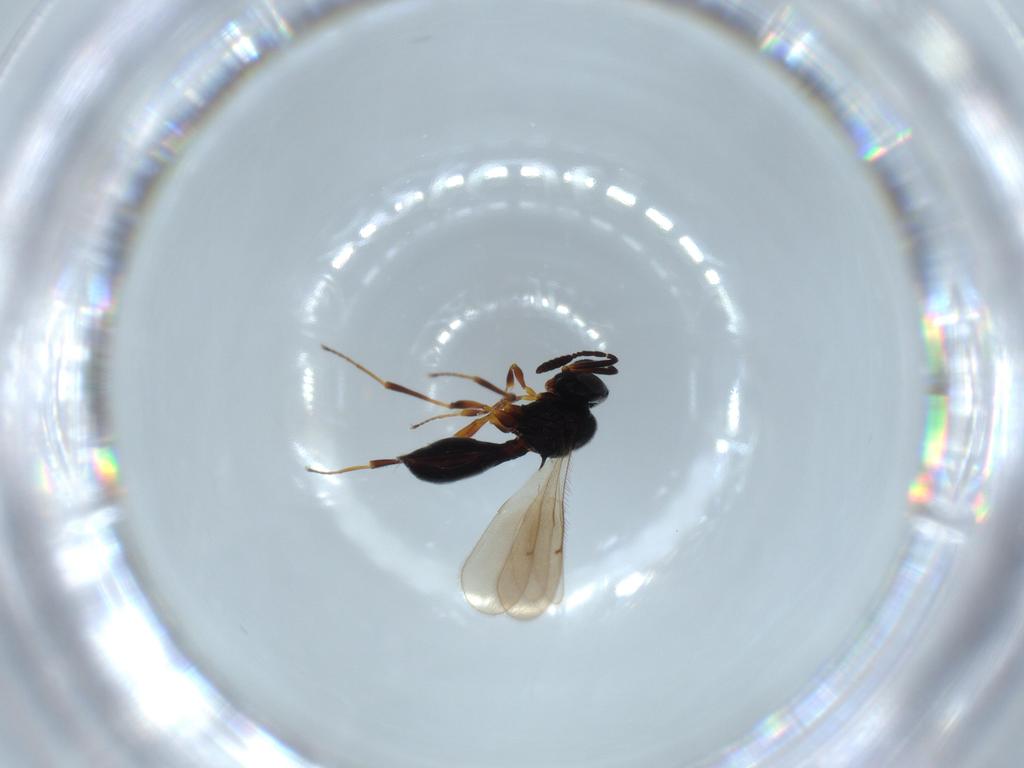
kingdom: Animalia
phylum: Arthropoda
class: Insecta
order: Hymenoptera
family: Scelionidae
